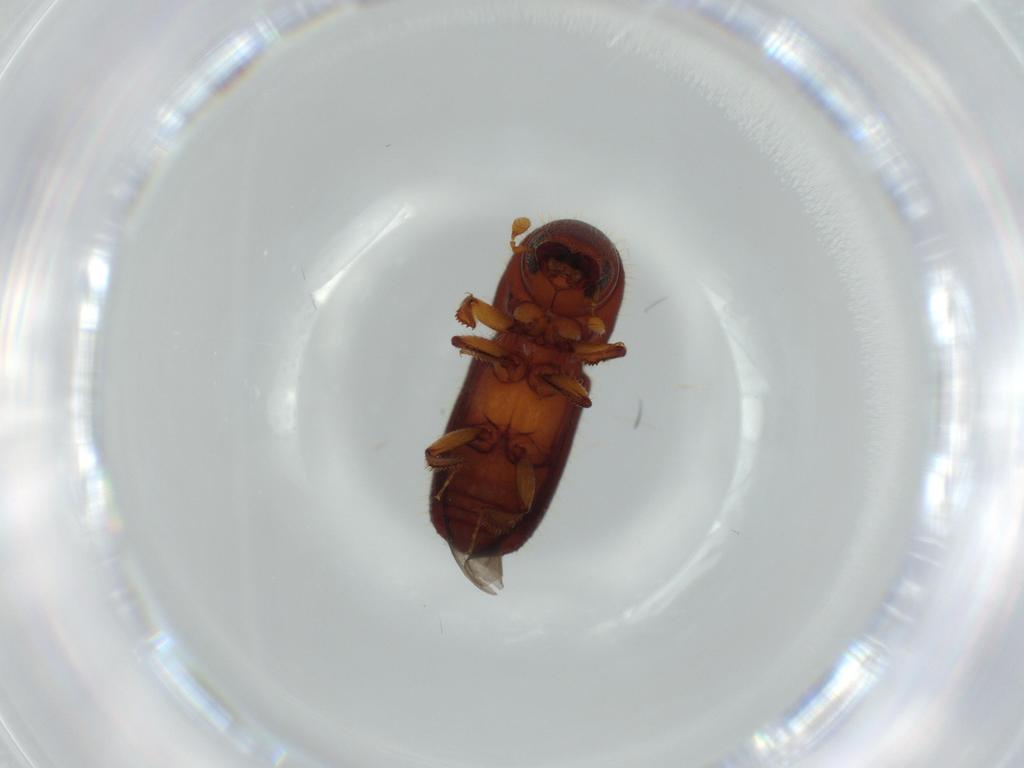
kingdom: Animalia
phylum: Arthropoda
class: Insecta
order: Coleoptera
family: Curculionidae
